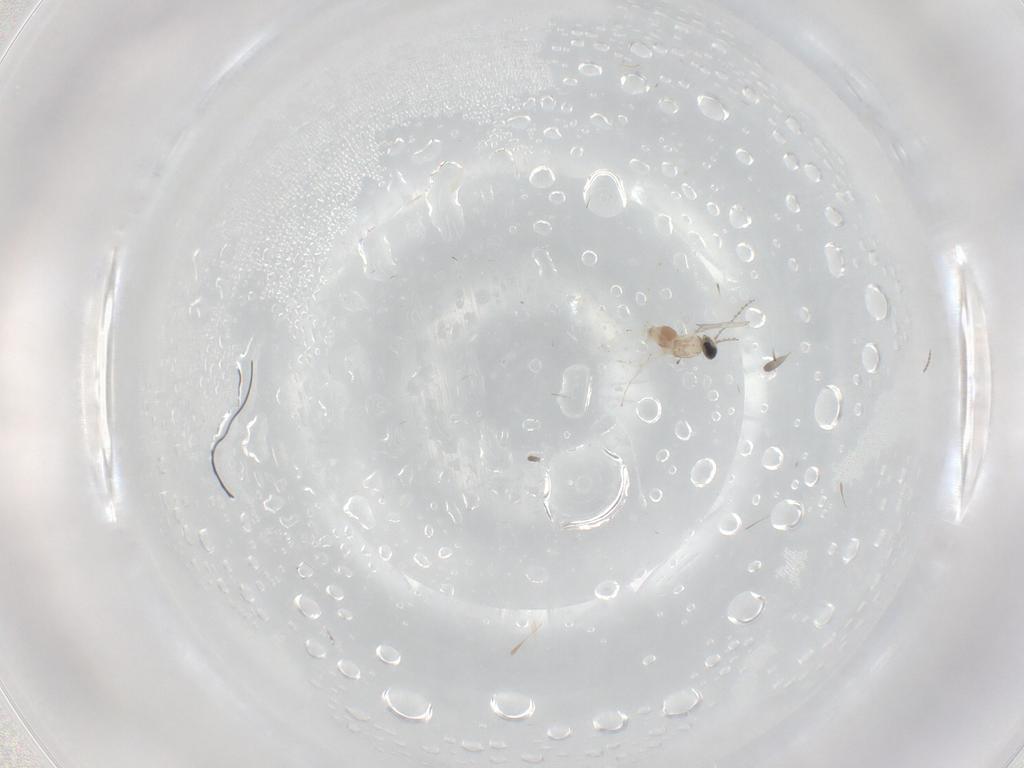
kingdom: Animalia
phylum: Arthropoda
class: Insecta
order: Diptera
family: Cecidomyiidae
